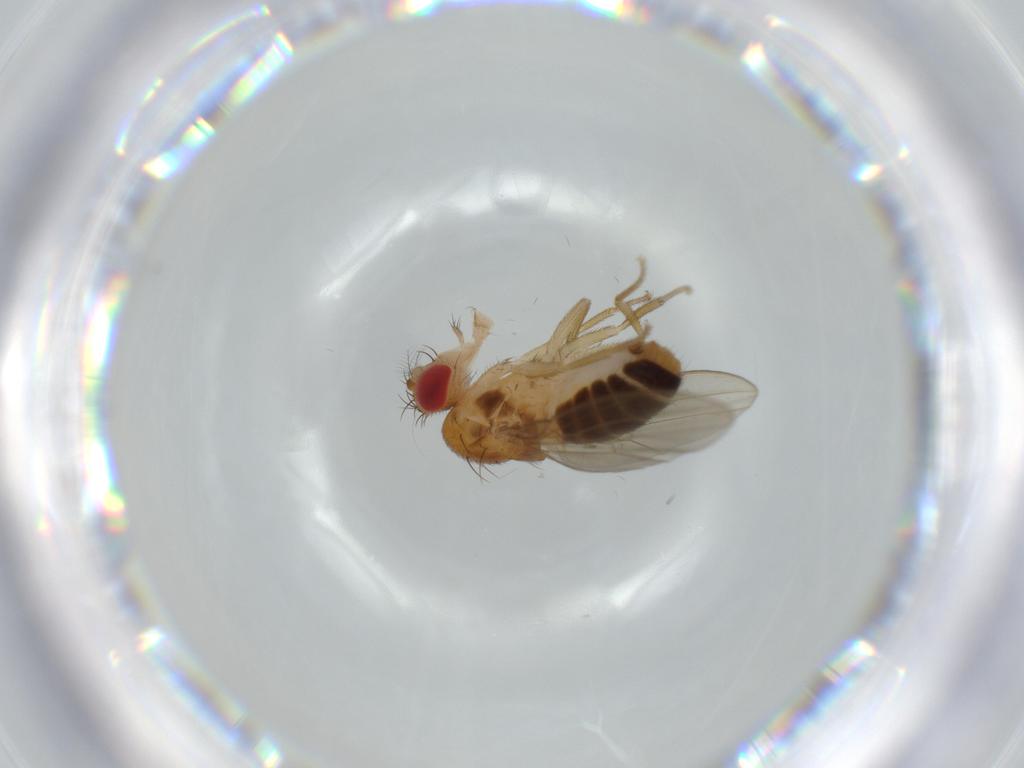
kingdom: Animalia
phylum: Arthropoda
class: Insecta
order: Diptera
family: Drosophilidae
